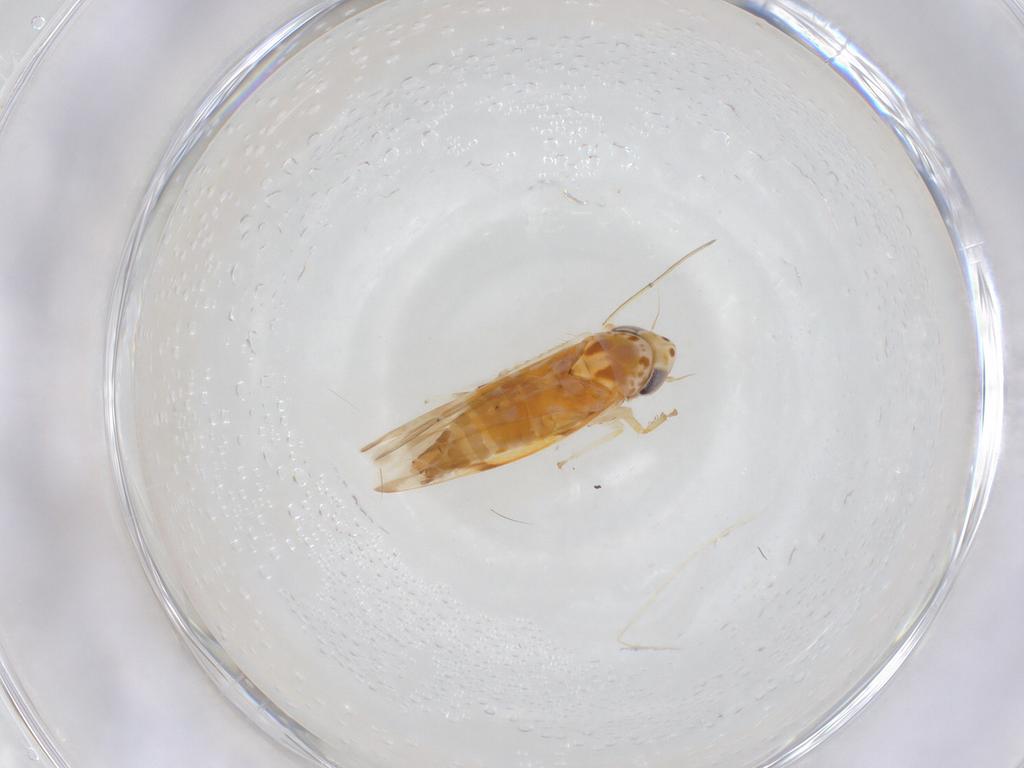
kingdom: Animalia
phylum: Arthropoda
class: Insecta
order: Hemiptera
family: Cicadellidae
